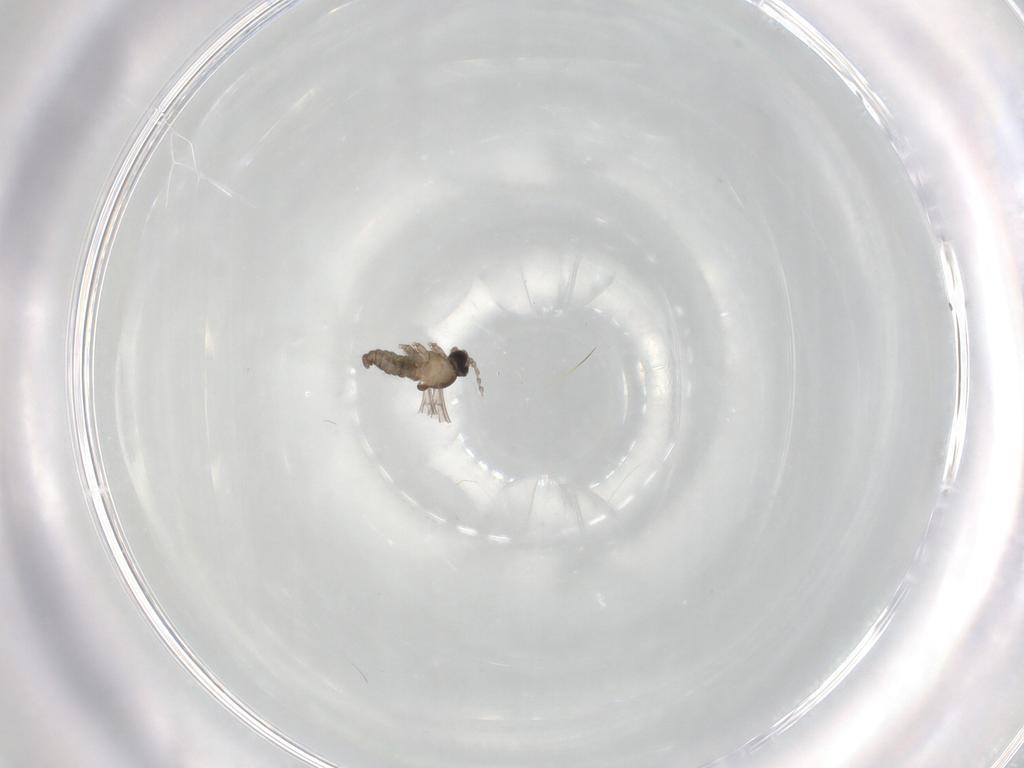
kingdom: Animalia
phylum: Arthropoda
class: Insecta
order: Diptera
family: Cecidomyiidae
